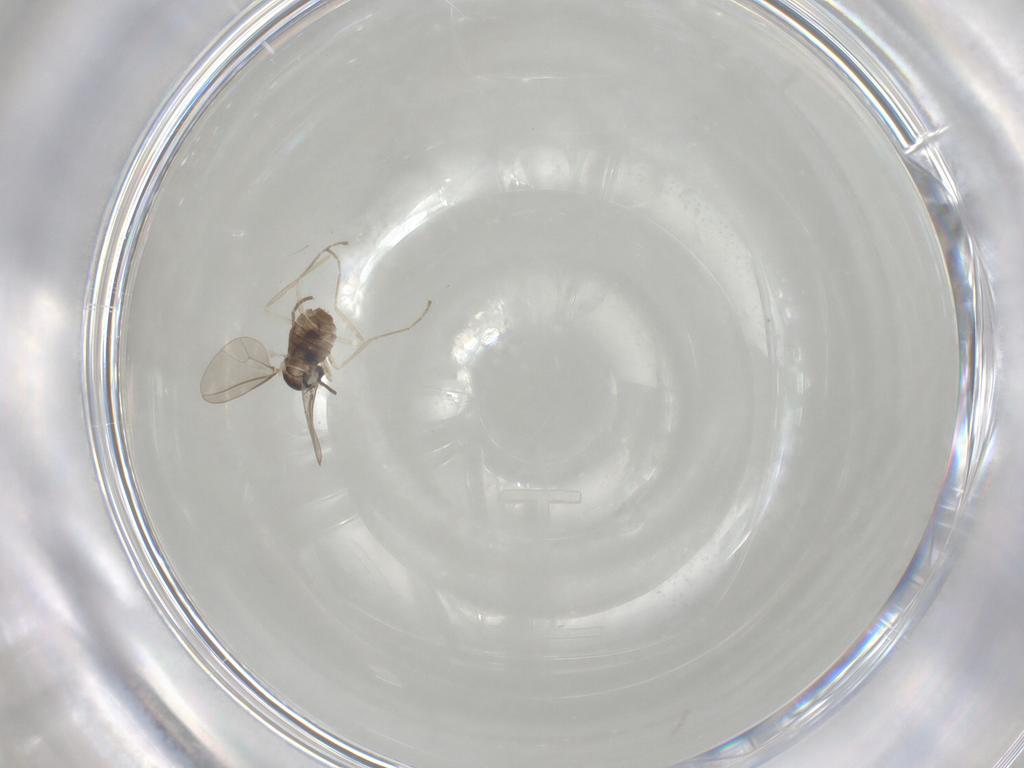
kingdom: Animalia
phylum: Arthropoda
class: Insecta
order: Diptera
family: Cecidomyiidae
